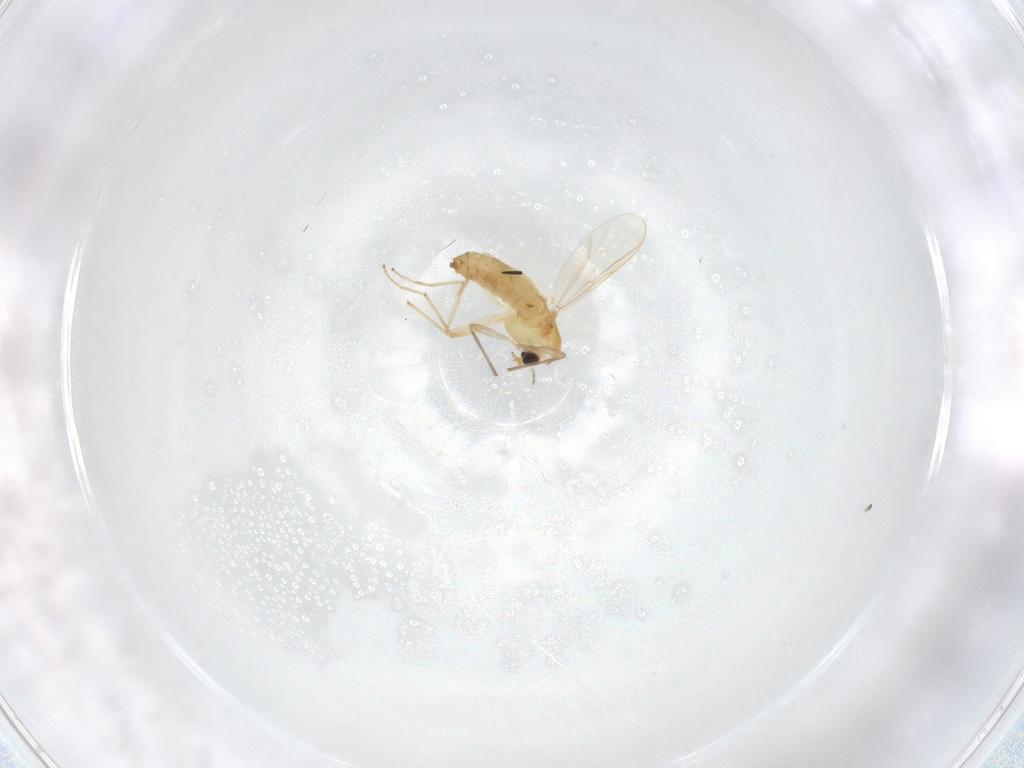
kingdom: Animalia
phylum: Arthropoda
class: Insecta
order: Diptera
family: Chironomidae
